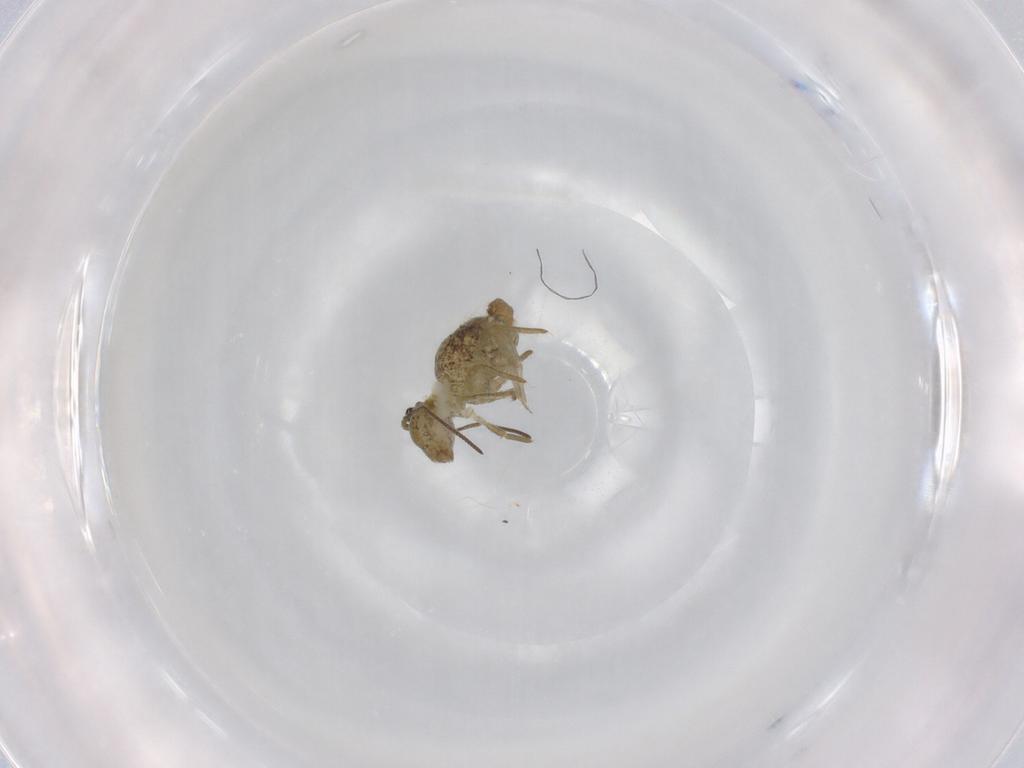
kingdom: Animalia
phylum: Arthropoda
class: Collembola
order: Symphypleona
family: Sminthuridae
